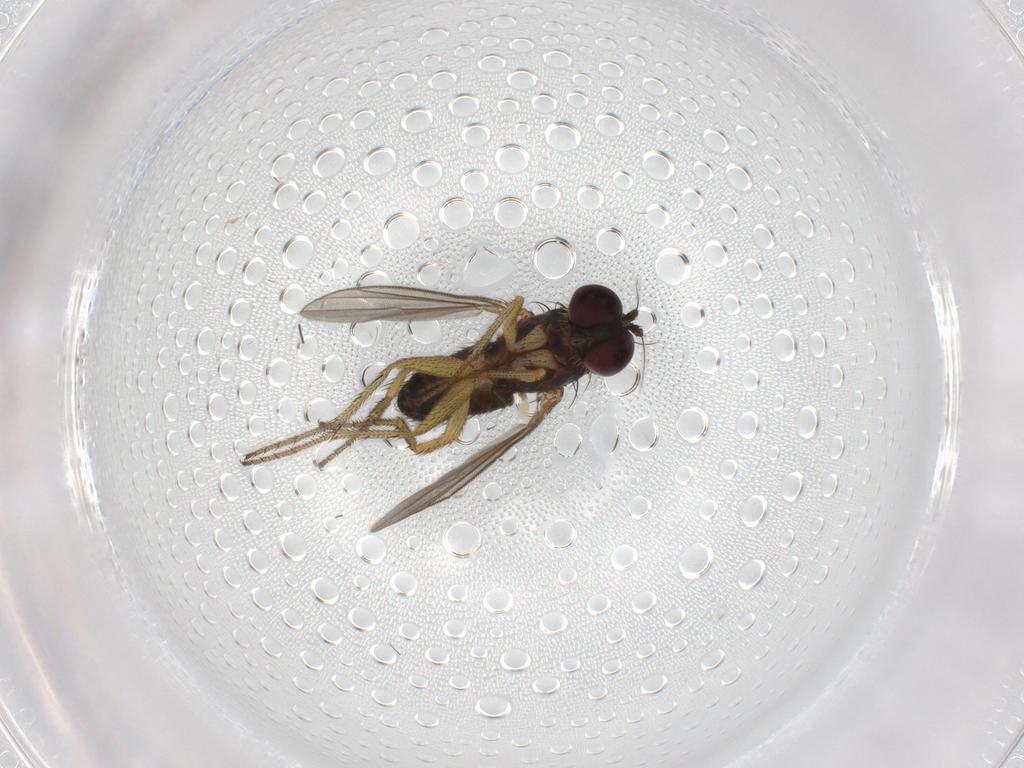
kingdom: Animalia
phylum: Arthropoda
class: Insecta
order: Diptera
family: Dolichopodidae
